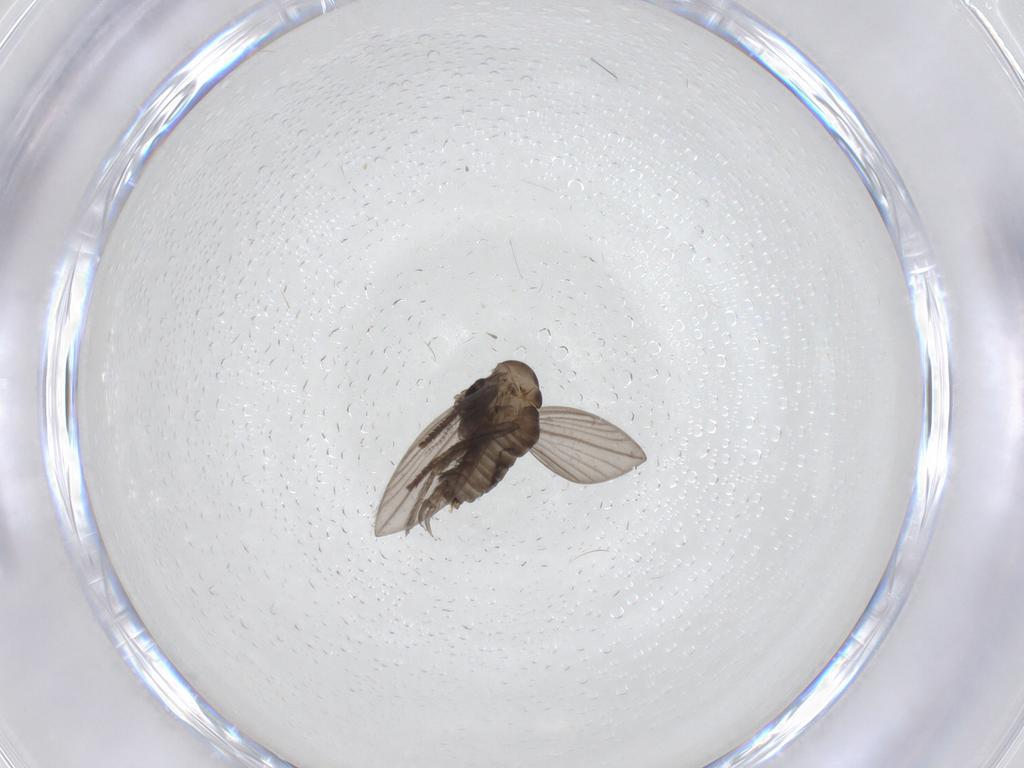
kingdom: Animalia
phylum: Arthropoda
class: Insecta
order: Diptera
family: Psychodidae
